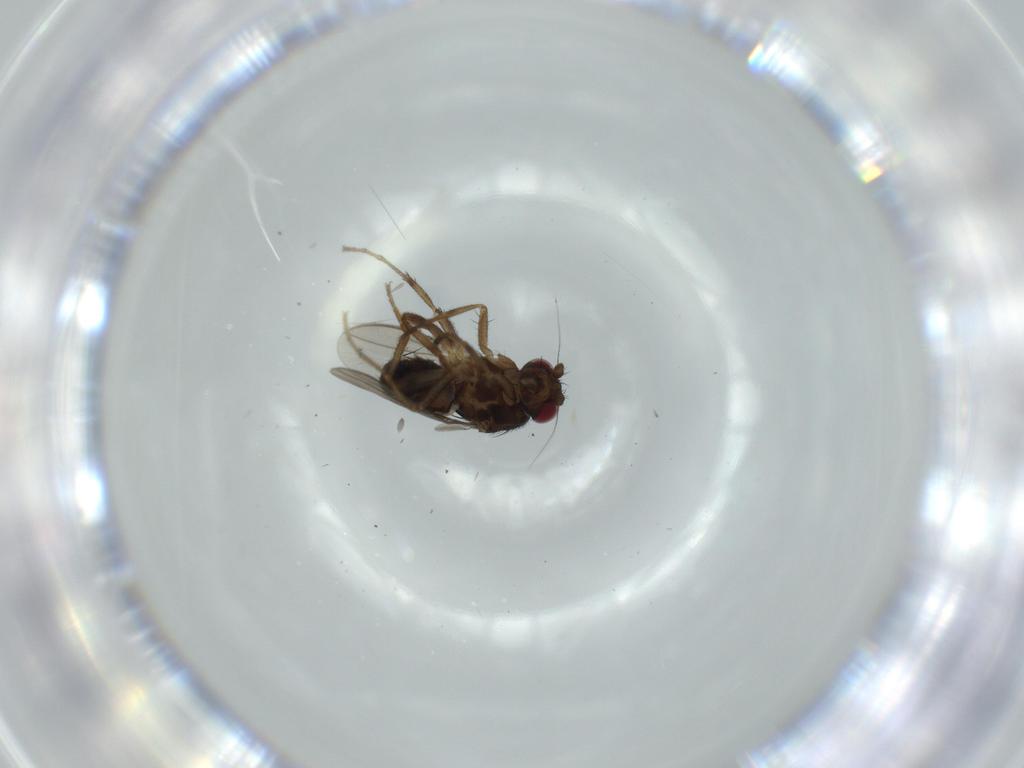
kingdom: Animalia
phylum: Arthropoda
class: Insecta
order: Diptera
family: Sphaeroceridae
